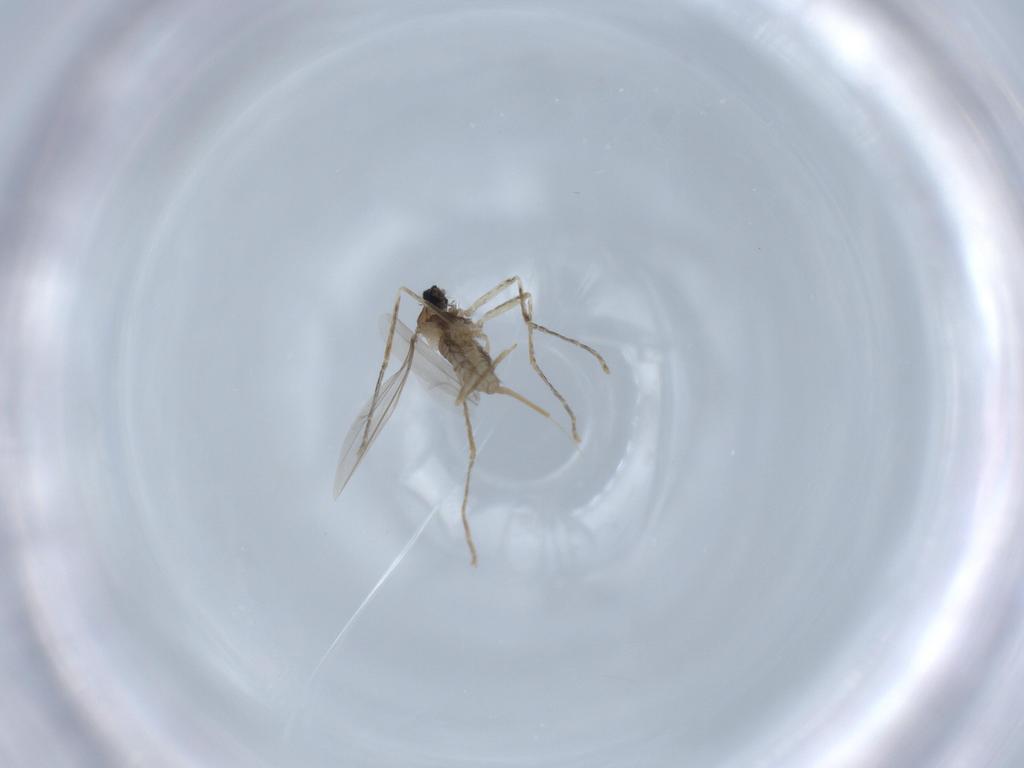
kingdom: Animalia
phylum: Arthropoda
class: Insecta
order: Diptera
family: Cecidomyiidae
